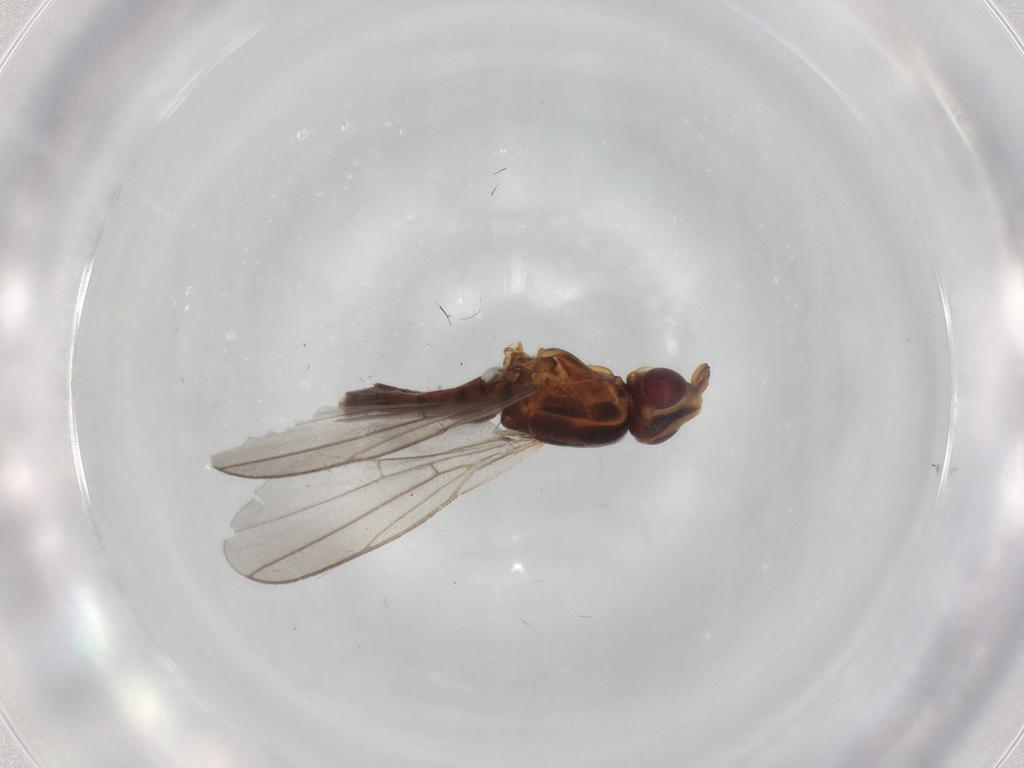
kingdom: Animalia
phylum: Arthropoda
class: Insecta
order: Diptera
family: Chloropidae
